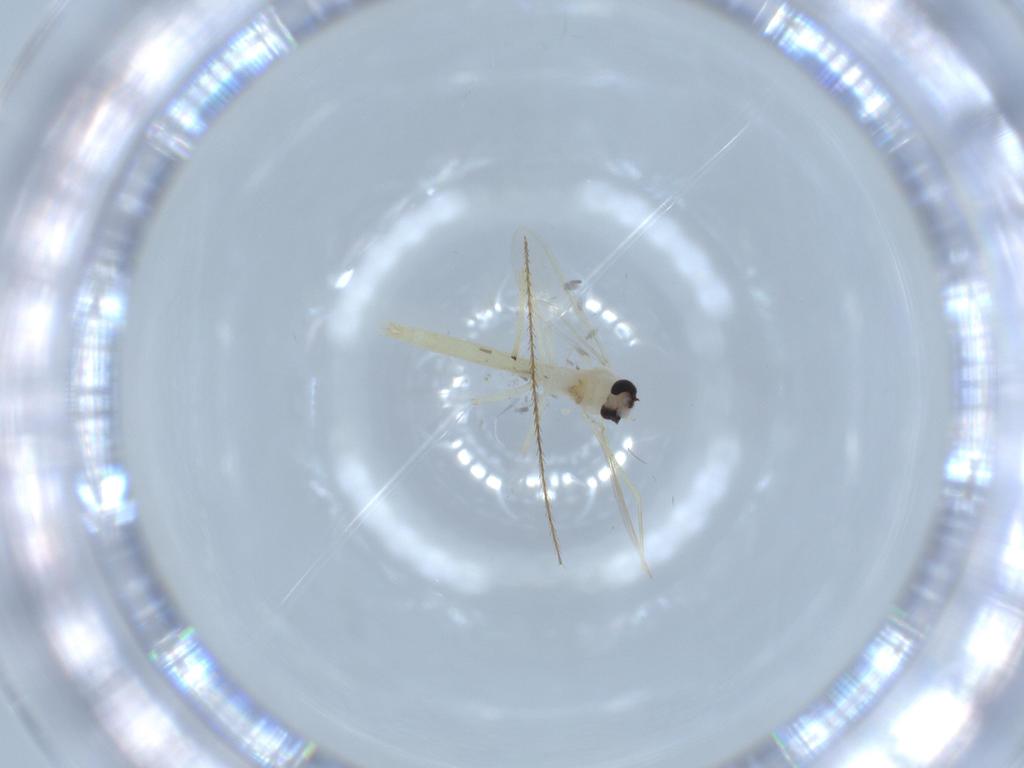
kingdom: Animalia
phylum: Arthropoda
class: Insecta
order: Diptera
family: Chironomidae
